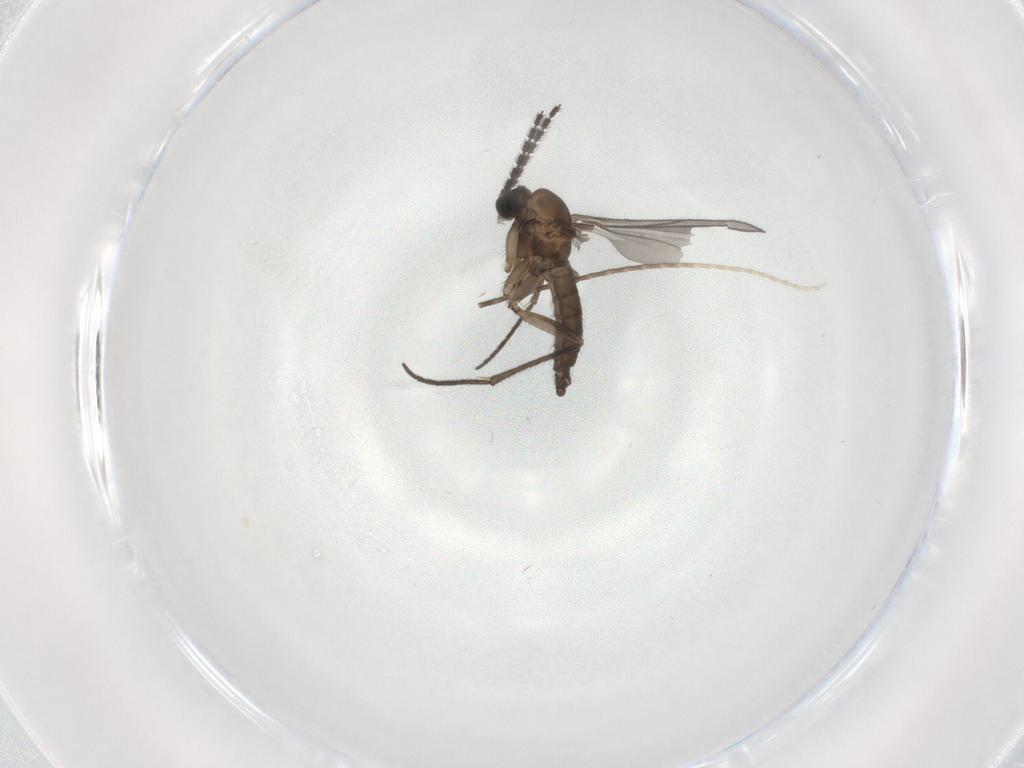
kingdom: Animalia
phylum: Arthropoda
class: Insecta
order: Diptera
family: Sciaridae
